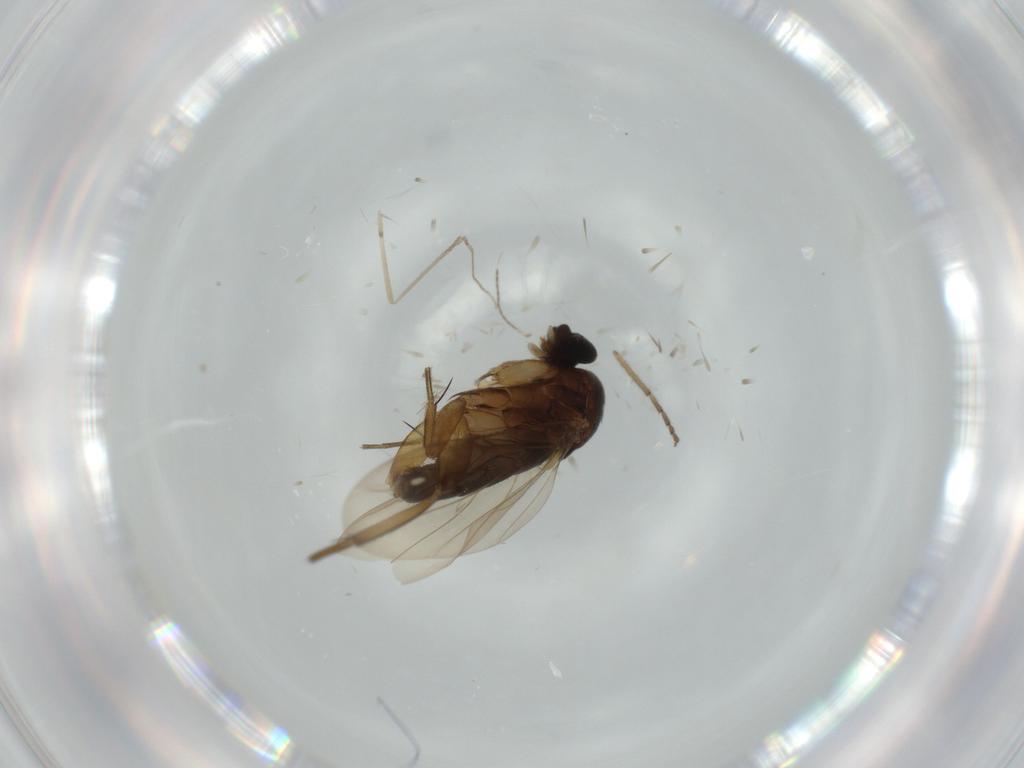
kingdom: Animalia
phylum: Arthropoda
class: Insecta
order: Diptera
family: Phoridae
